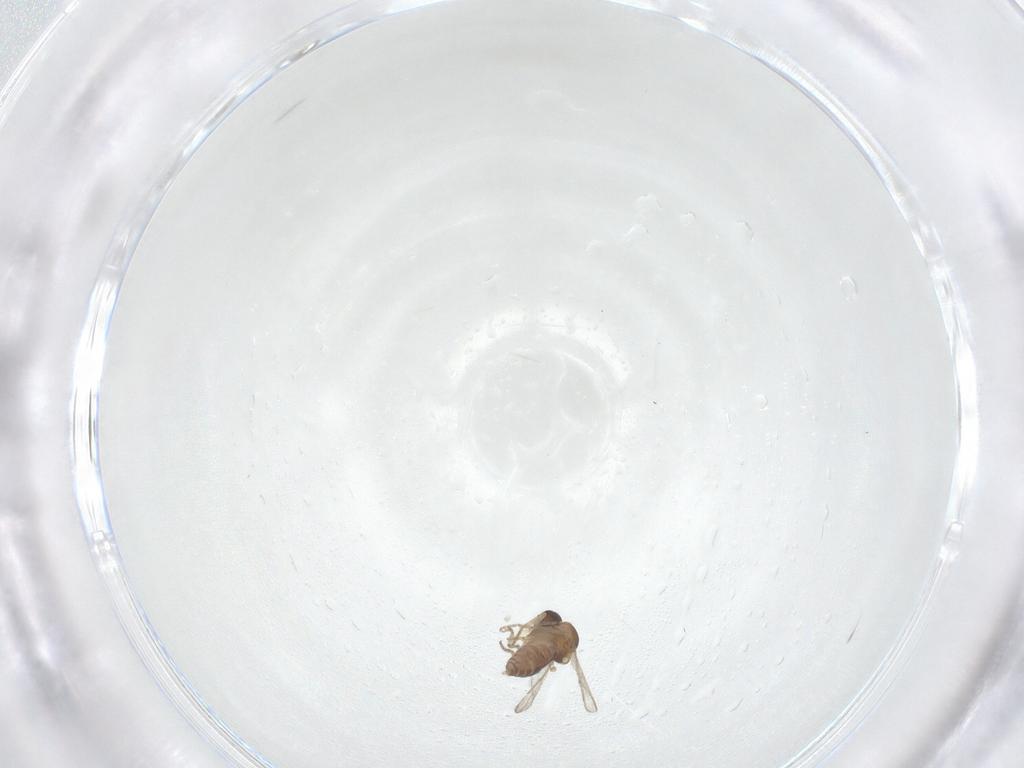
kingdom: Animalia
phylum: Arthropoda
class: Insecta
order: Diptera
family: Ceratopogonidae
